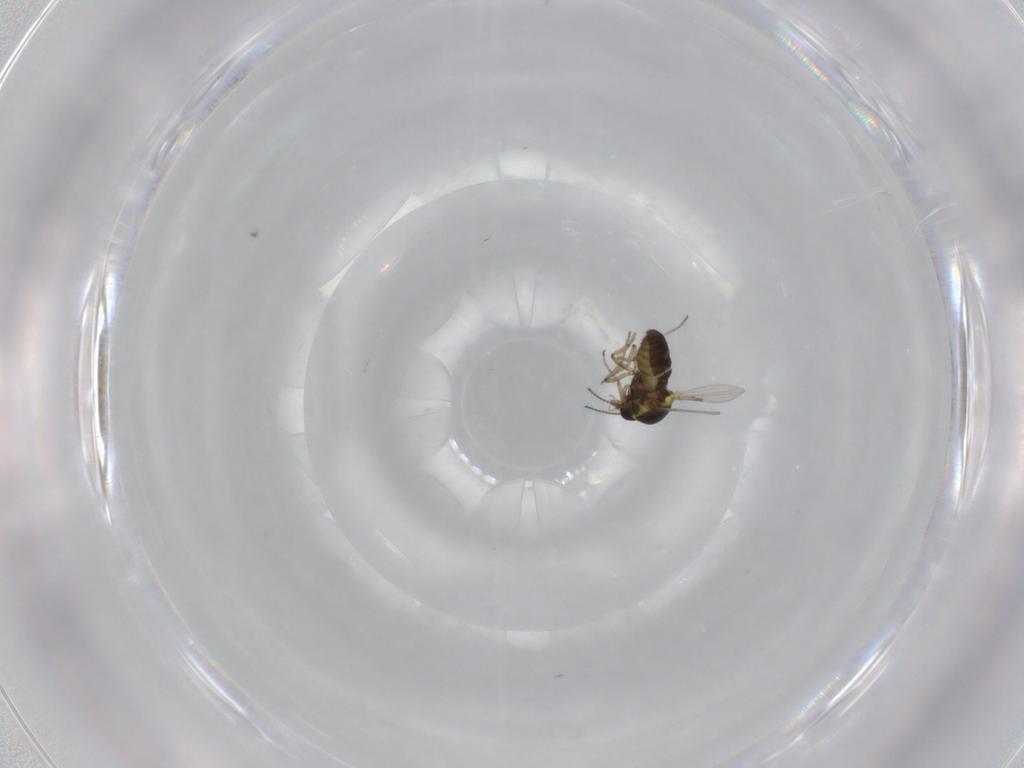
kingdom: Animalia
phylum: Arthropoda
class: Insecta
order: Diptera
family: Ceratopogonidae
